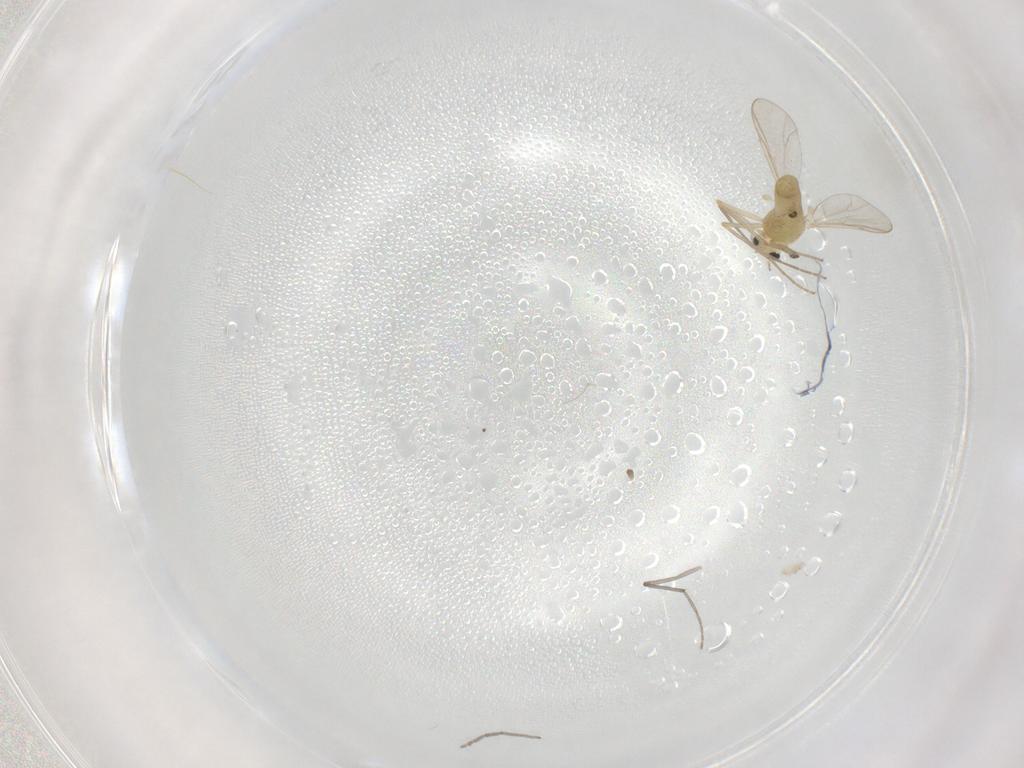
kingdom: Animalia
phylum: Arthropoda
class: Insecta
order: Diptera
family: Chironomidae
